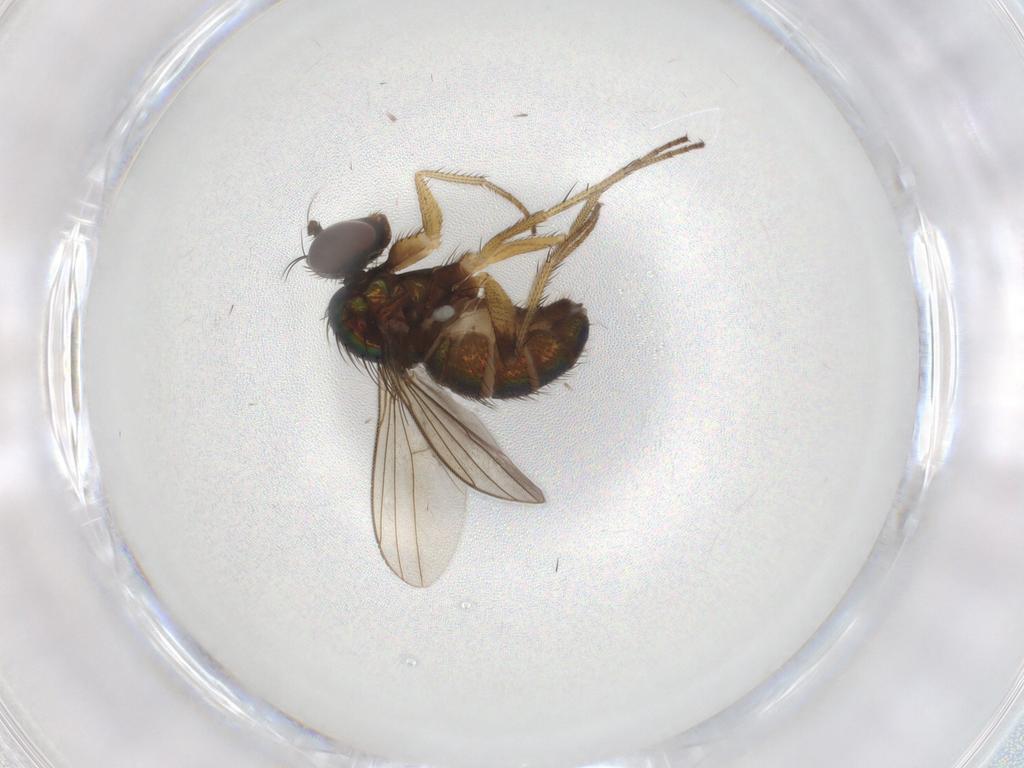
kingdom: Animalia
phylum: Arthropoda
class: Insecta
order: Diptera
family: Dolichopodidae
